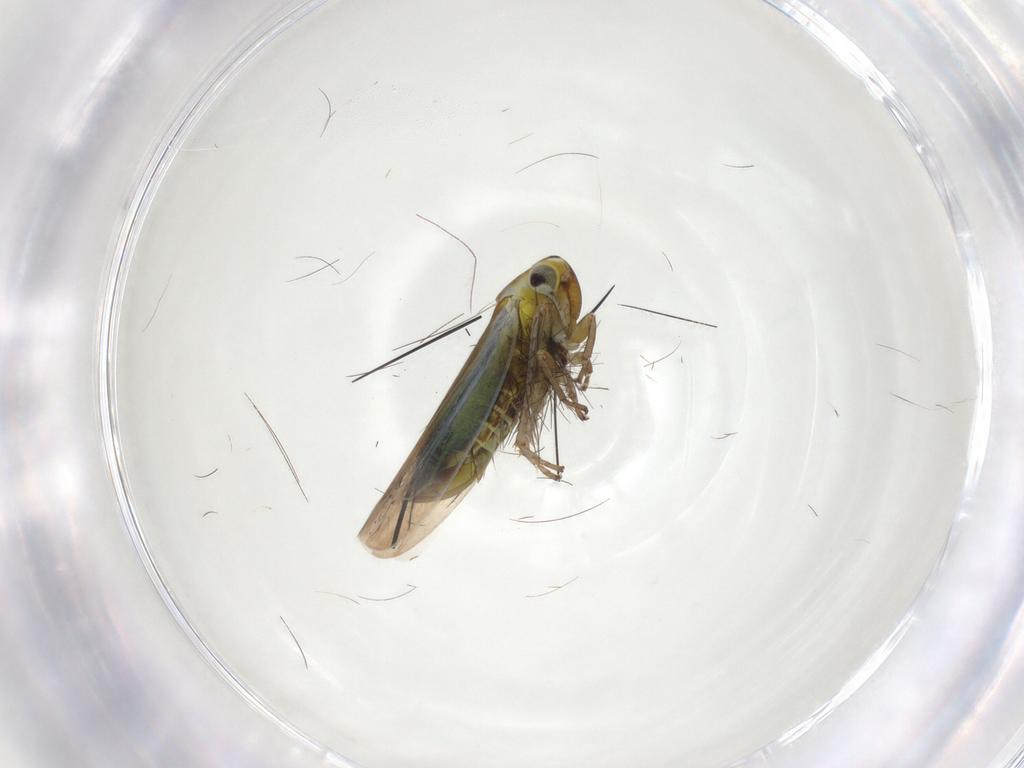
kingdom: Animalia
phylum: Arthropoda
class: Insecta
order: Hemiptera
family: Cicadellidae
